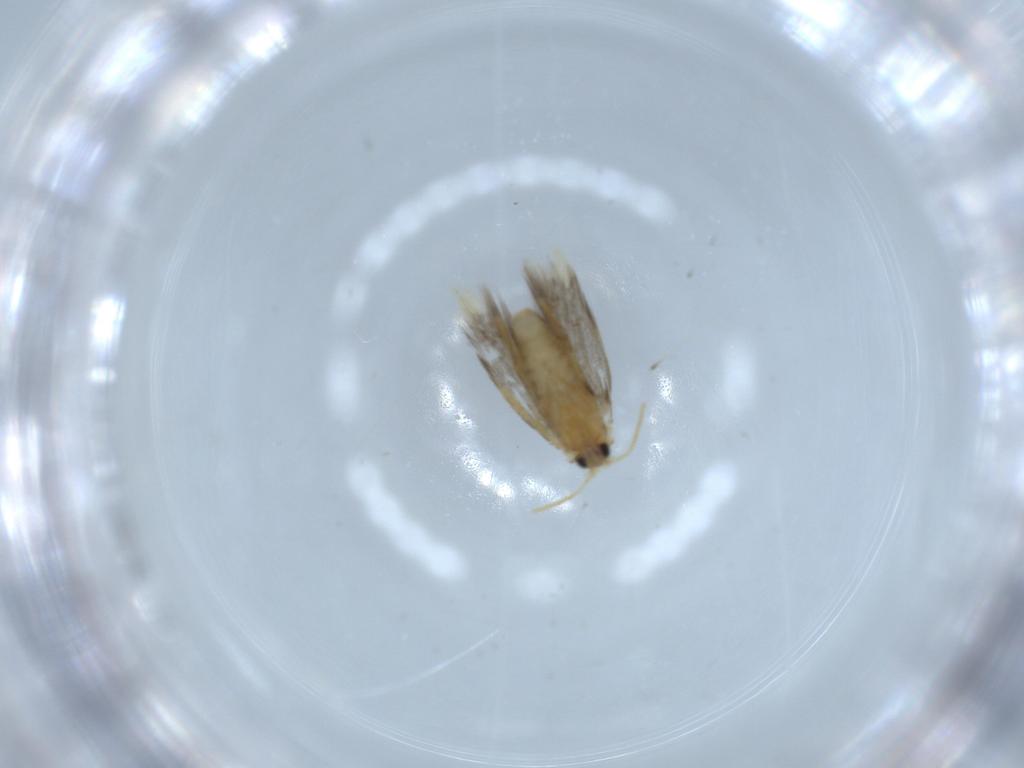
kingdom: Animalia
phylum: Arthropoda
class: Insecta
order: Lepidoptera
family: Copromorphidae
